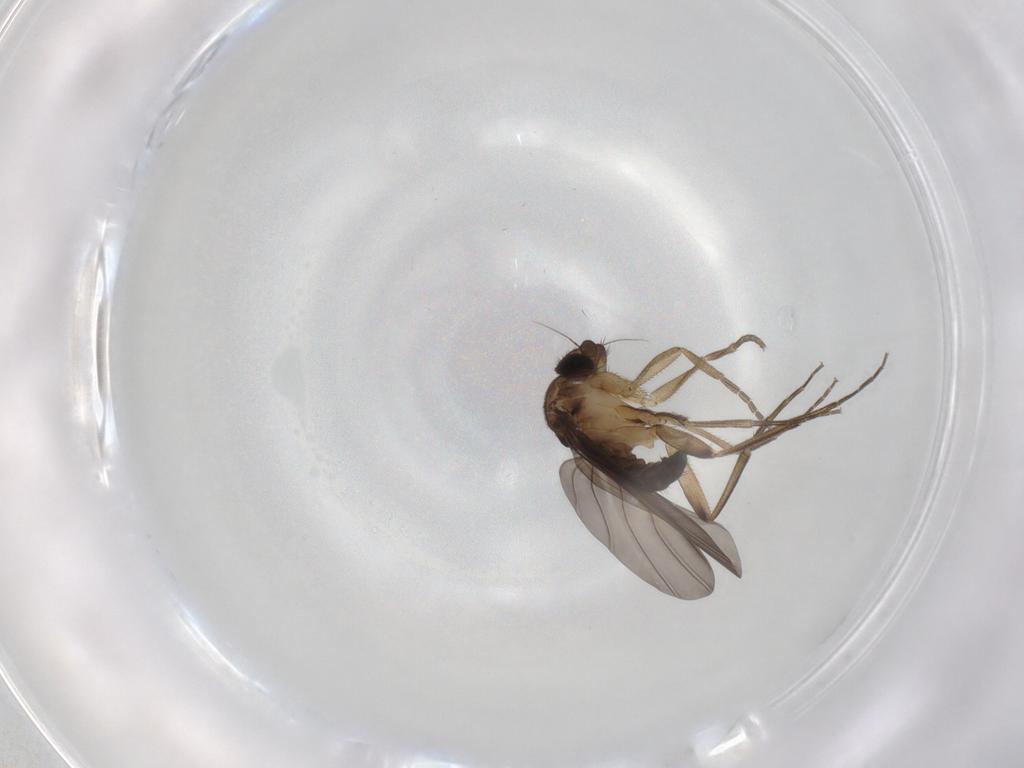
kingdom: Animalia
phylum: Arthropoda
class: Insecta
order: Diptera
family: Phoridae
